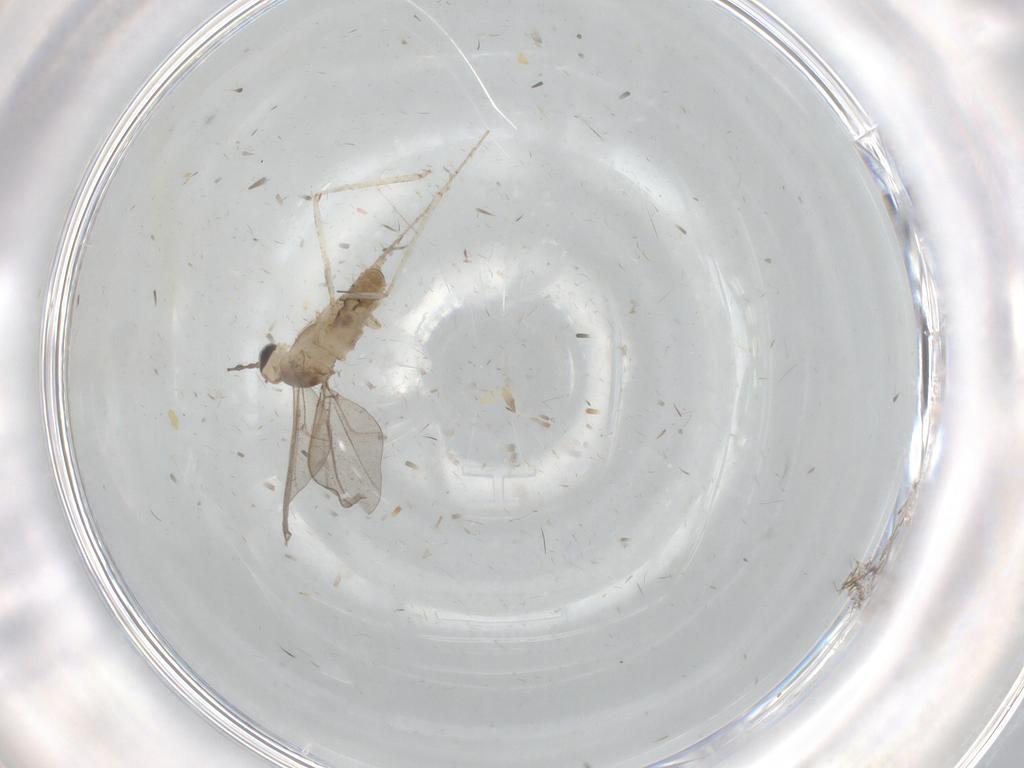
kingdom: Animalia
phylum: Arthropoda
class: Insecta
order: Diptera
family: Cecidomyiidae
